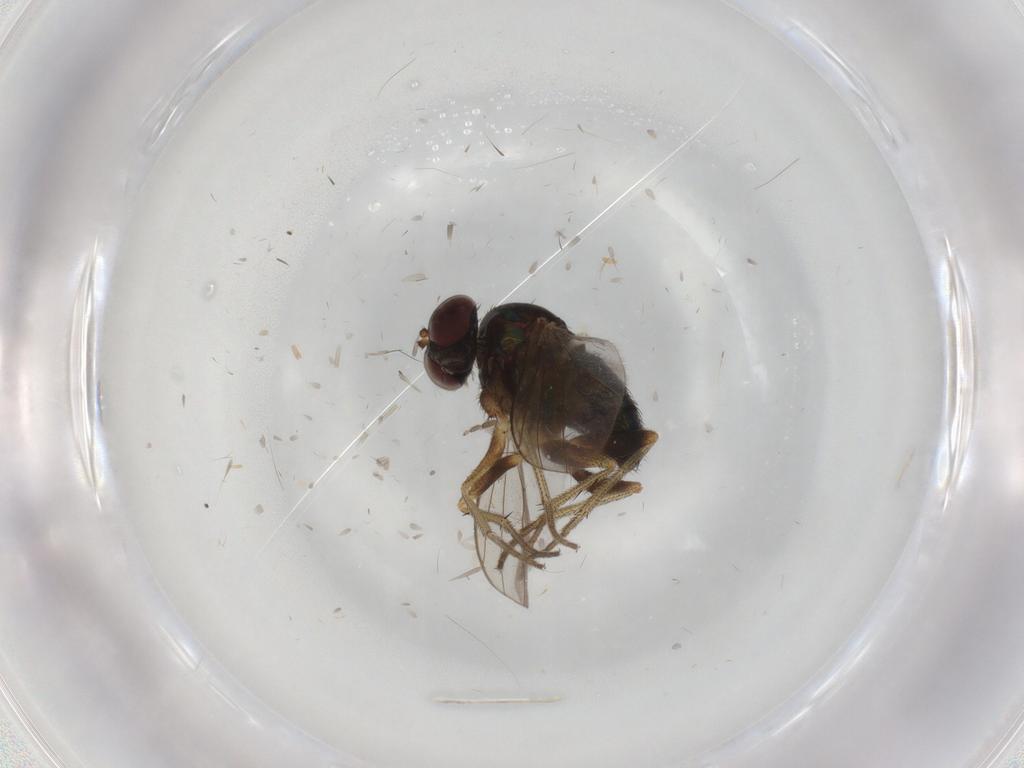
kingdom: Animalia
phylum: Arthropoda
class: Insecta
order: Diptera
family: Dolichopodidae
